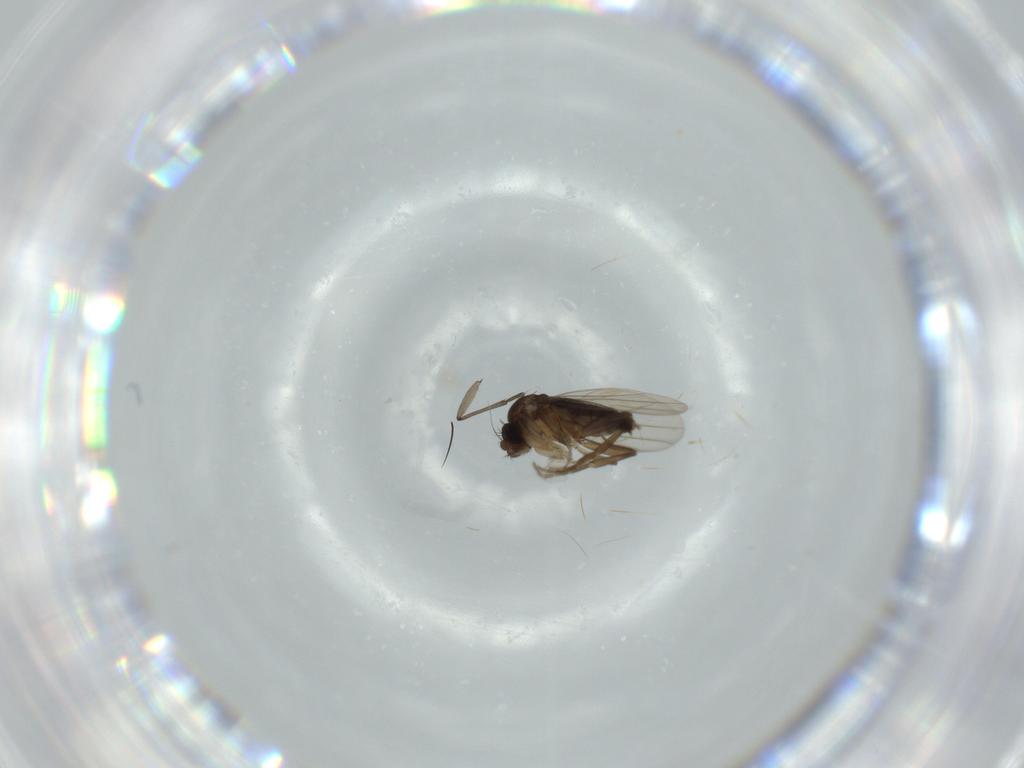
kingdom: Animalia
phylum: Arthropoda
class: Insecta
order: Diptera
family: Phoridae
